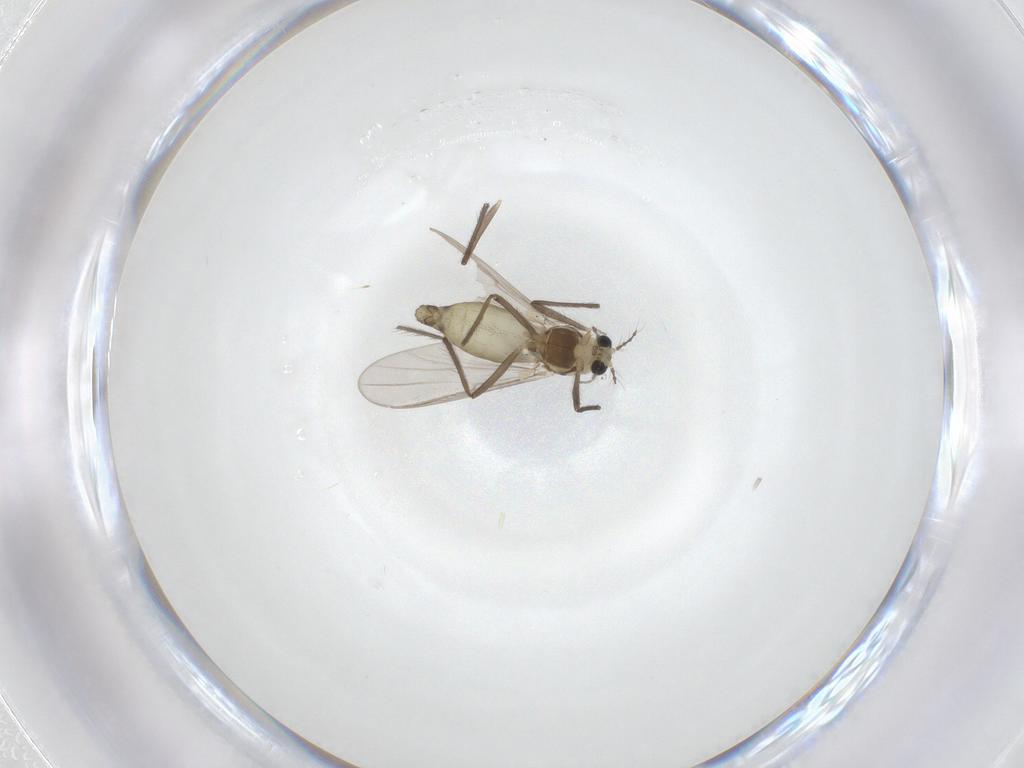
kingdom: Animalia
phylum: Arthropoda
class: Insecta
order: Diptera
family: Chironomidae
